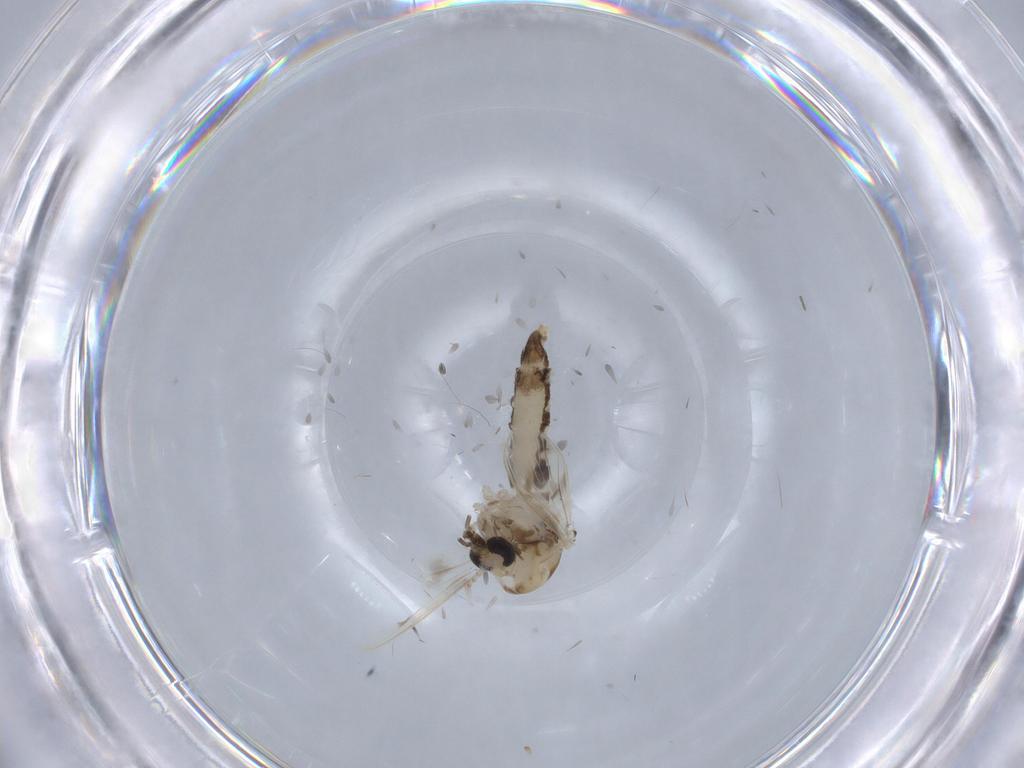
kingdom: Animalia
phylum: Arthropoda
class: Insecta
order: Diptera
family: Corethrellidae
